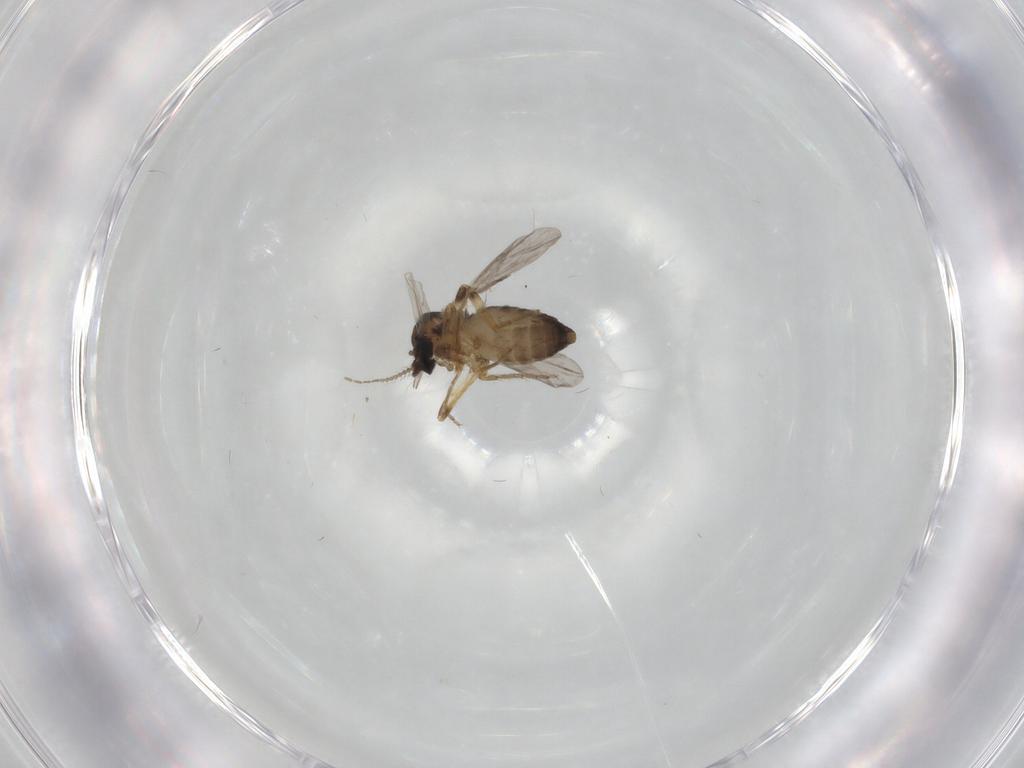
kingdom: Animalia
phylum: Arthropoda
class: Insecta
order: Diptera
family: Ceratopogonidae
